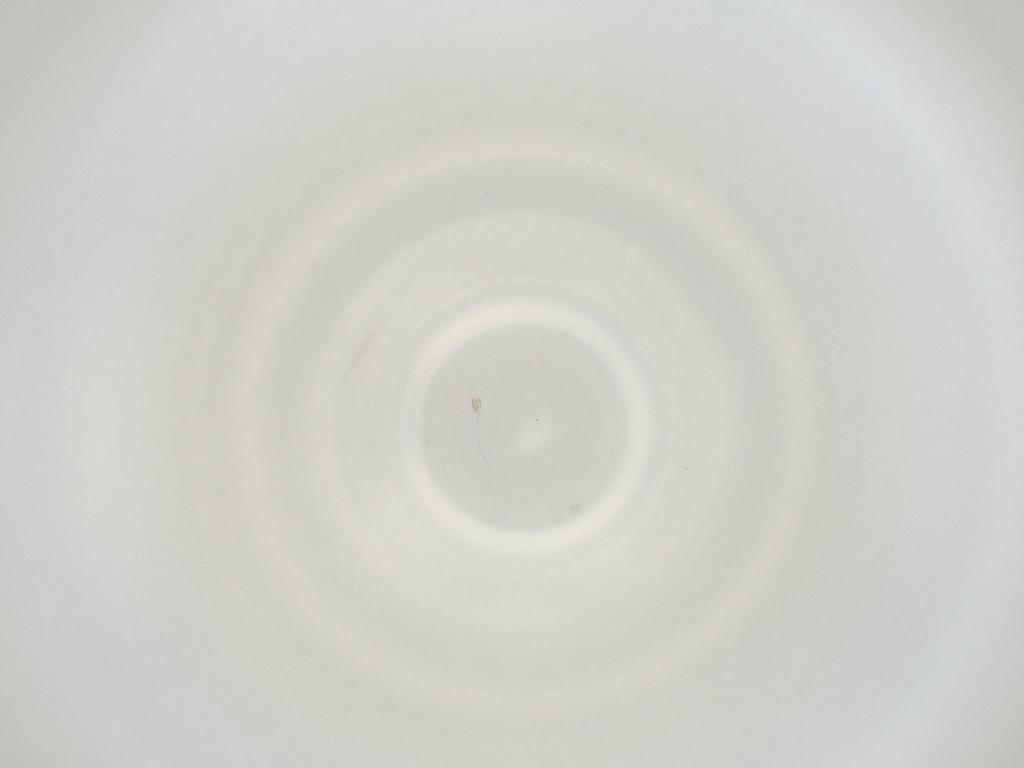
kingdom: Animalia
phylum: Arthropoda
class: Insecta
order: Diptera
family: Cecidomyiidae
